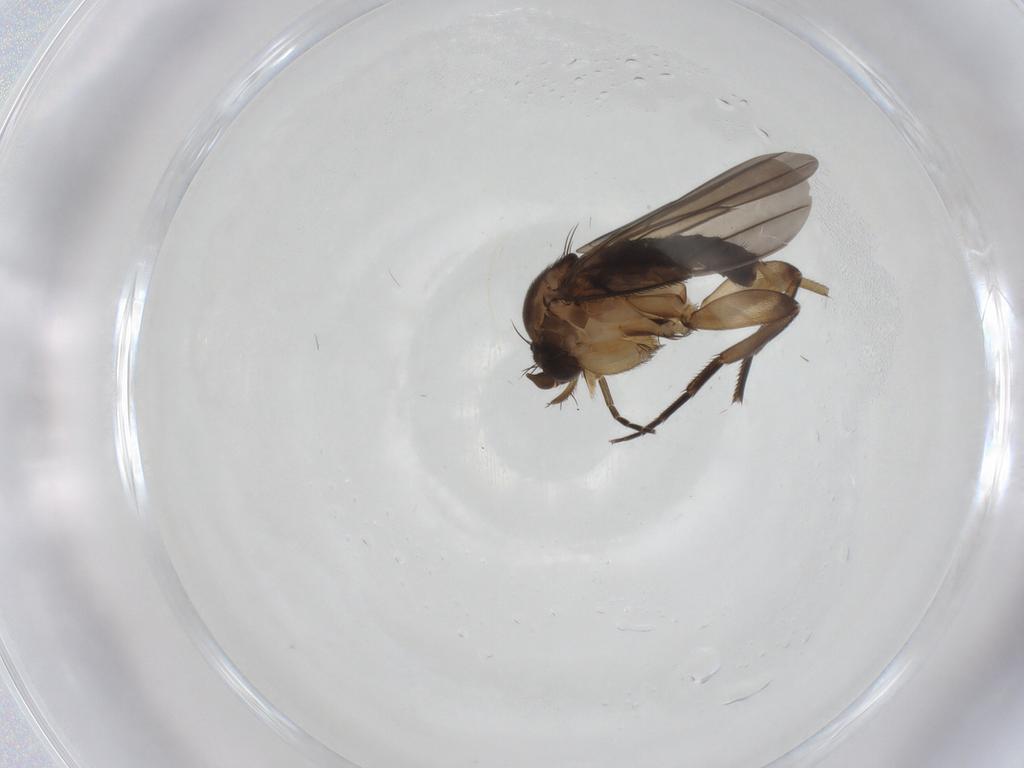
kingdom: Animalia
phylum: Arthropoda
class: Insecta
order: Diptera
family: Phoridae
